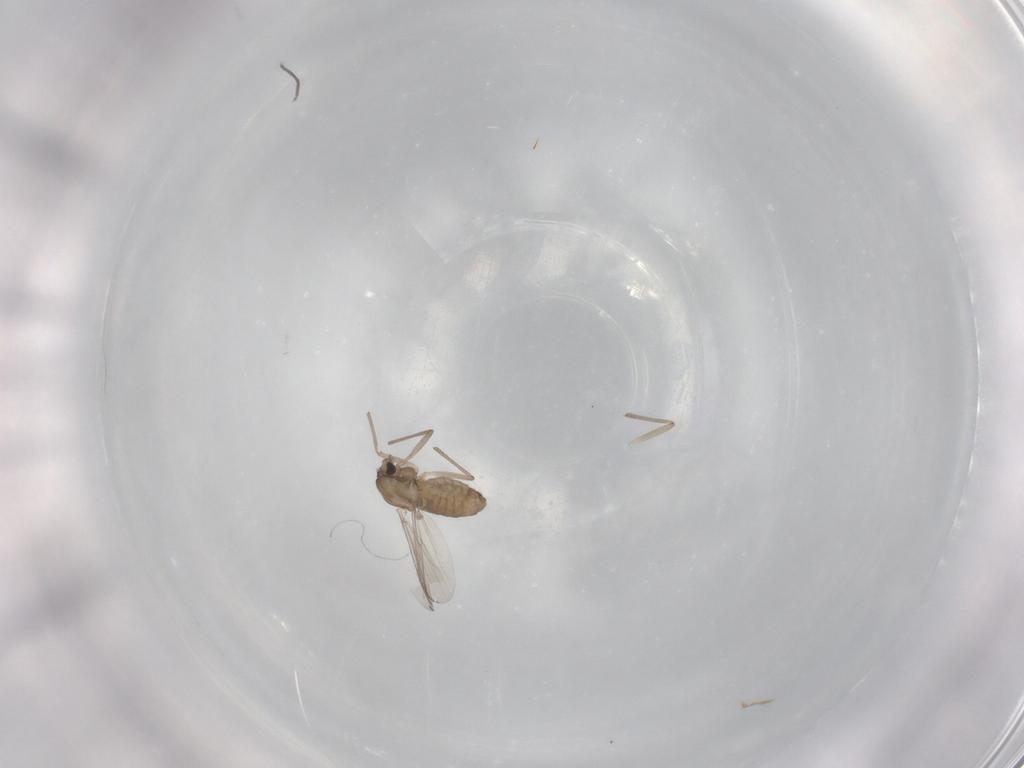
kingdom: Animalia
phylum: Arthropoda
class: Insecta
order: Diptera
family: Chironomidae
